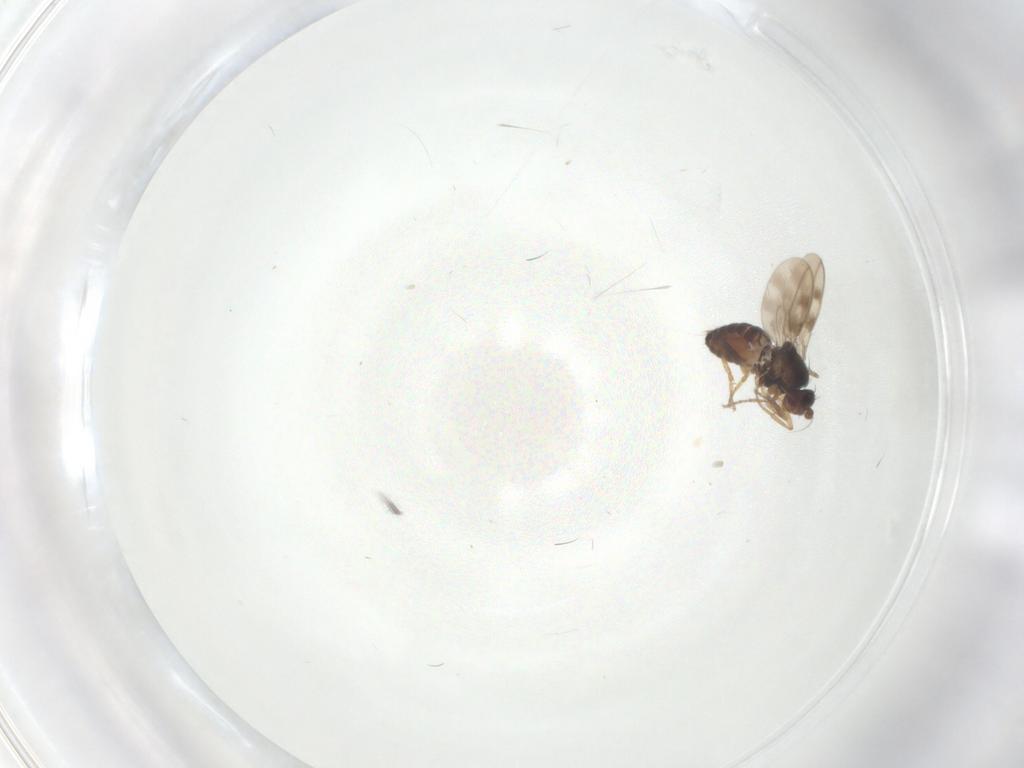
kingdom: Animalia
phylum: Arthropoda
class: Insecta
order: Diptera
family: Sphaeroceridae
